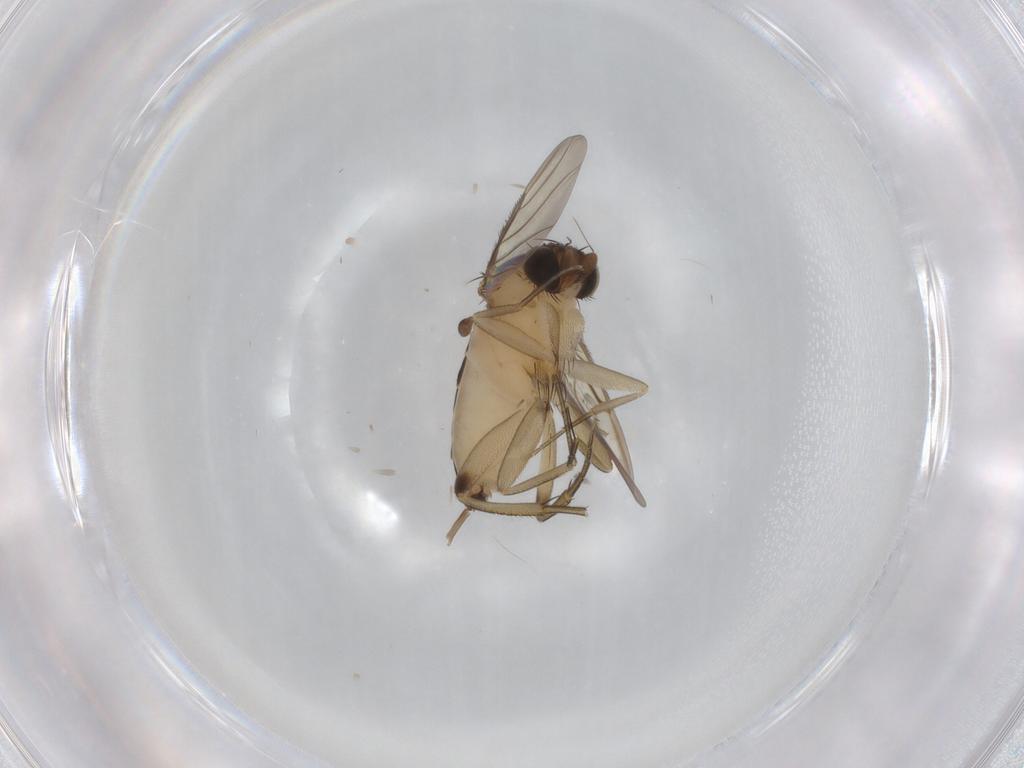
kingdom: Animalia
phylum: Arthropoda
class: Insecta
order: Diptera
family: Phoridae
